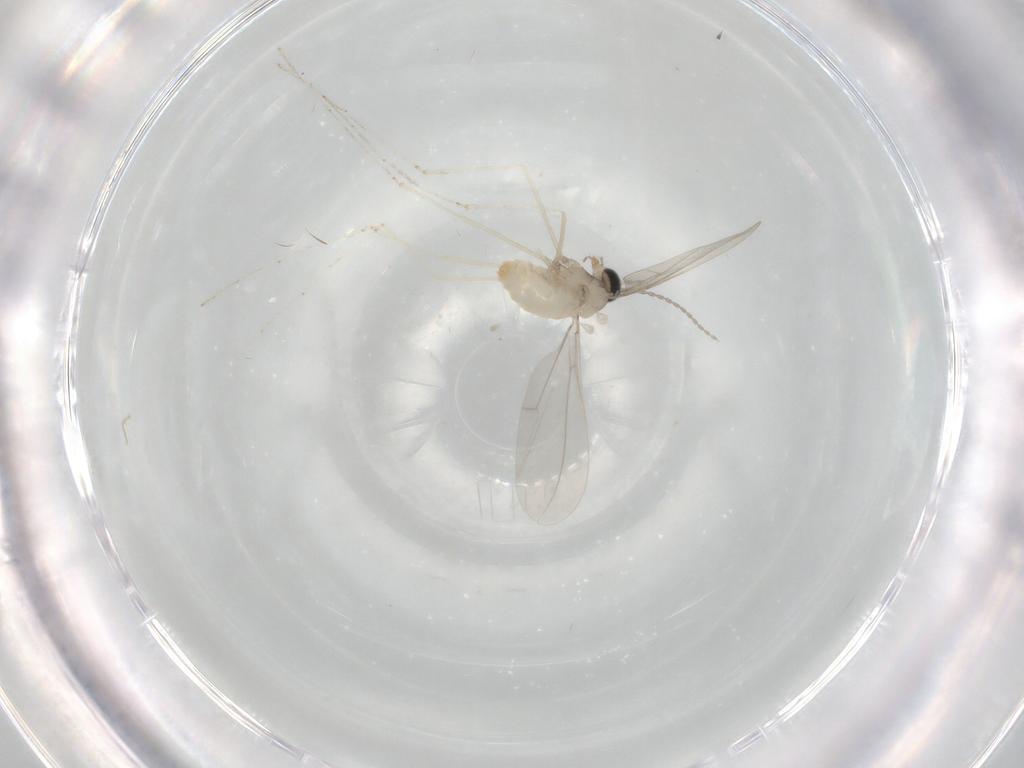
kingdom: Animalia
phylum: Arthropoda
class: Insecta
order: Diptera
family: Cecidomyiidae
